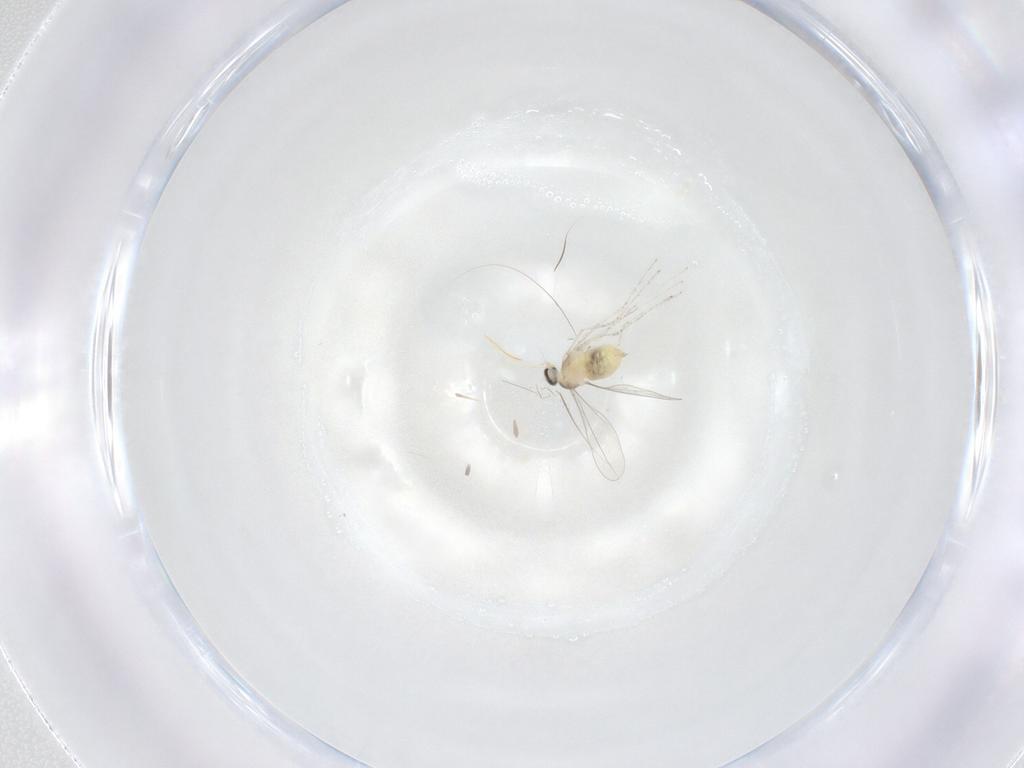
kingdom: Animalia
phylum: Arthropoda
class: Insecta
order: Diptera
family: Cecidomyiidae
